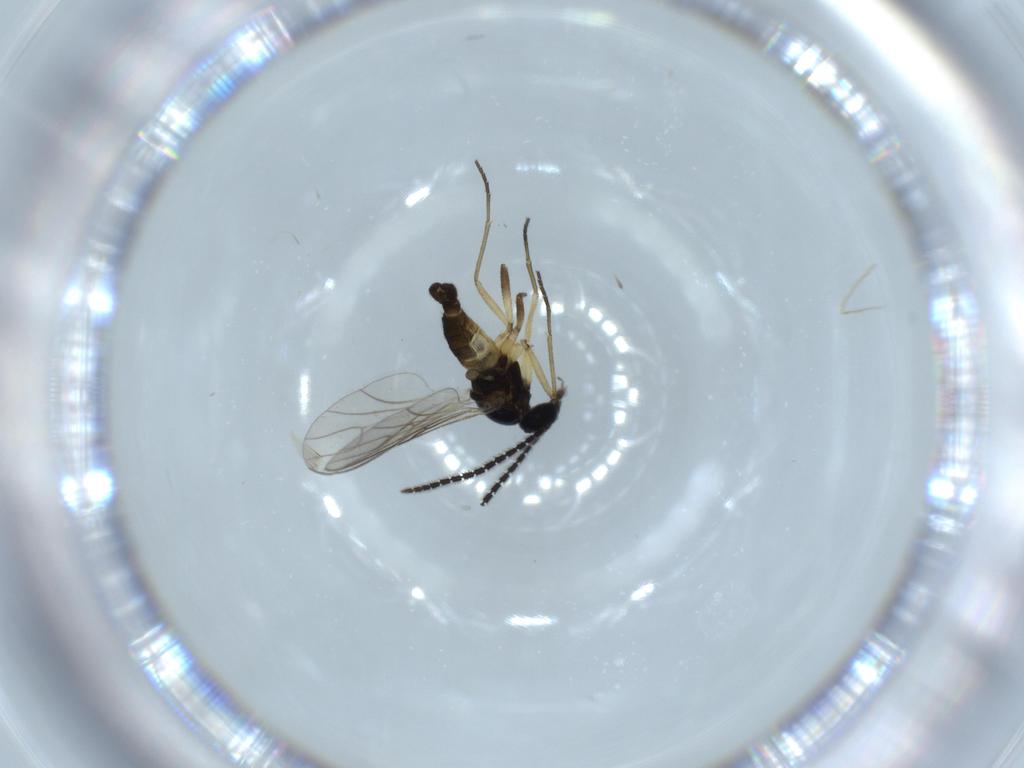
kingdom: Animalia
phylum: Arthropoda
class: Insecta
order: Diptera
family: Sciaridae
